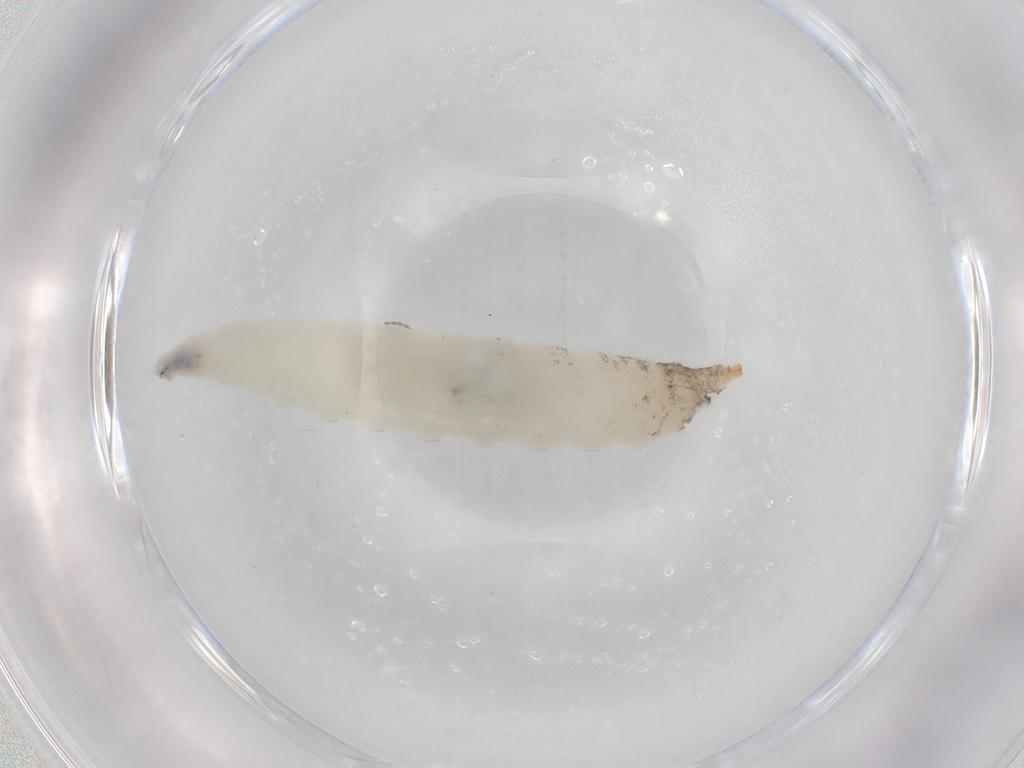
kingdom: Animalia
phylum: Arthropoda
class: Insecta
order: Diptera
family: Drosophilidae
